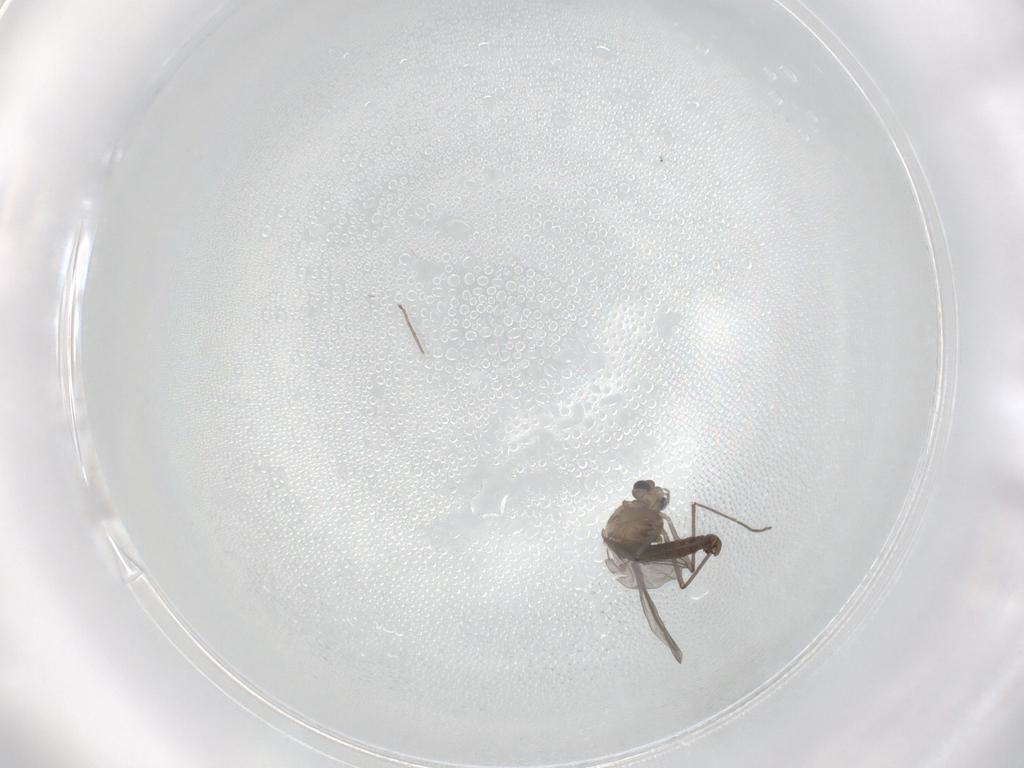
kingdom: Animalia
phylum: Arthropoda
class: Insecta
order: Diptera
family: Chironomidae
